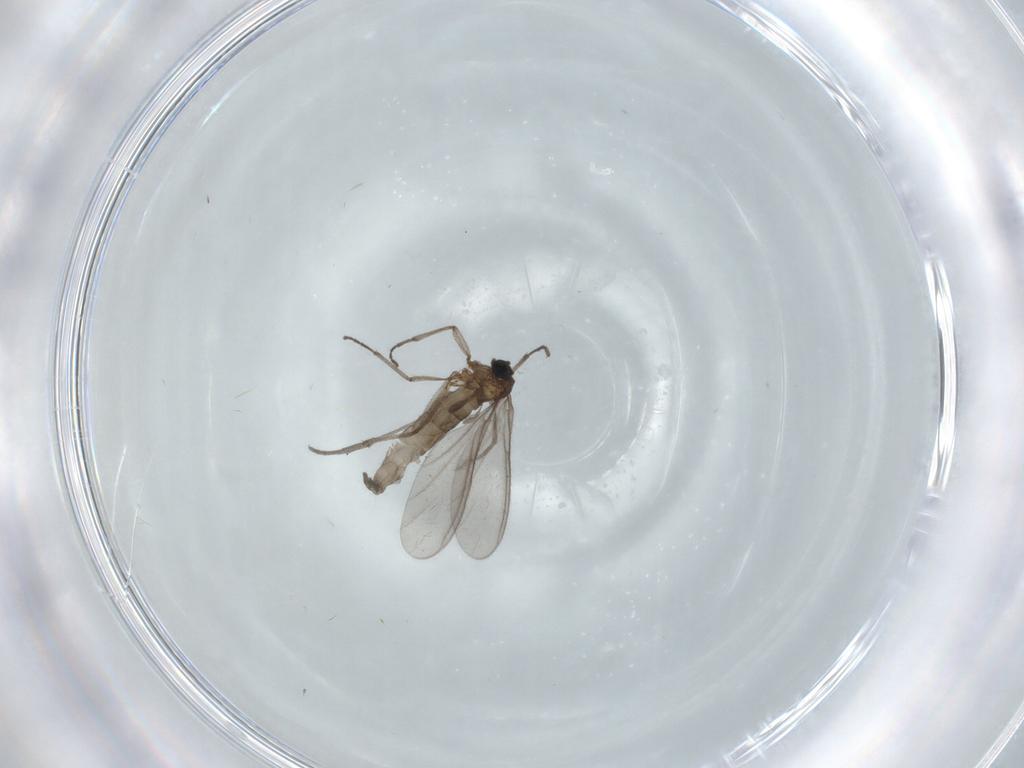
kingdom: Animalia
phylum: Arthropoda
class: Insecta
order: Diptera
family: Sciaridae
